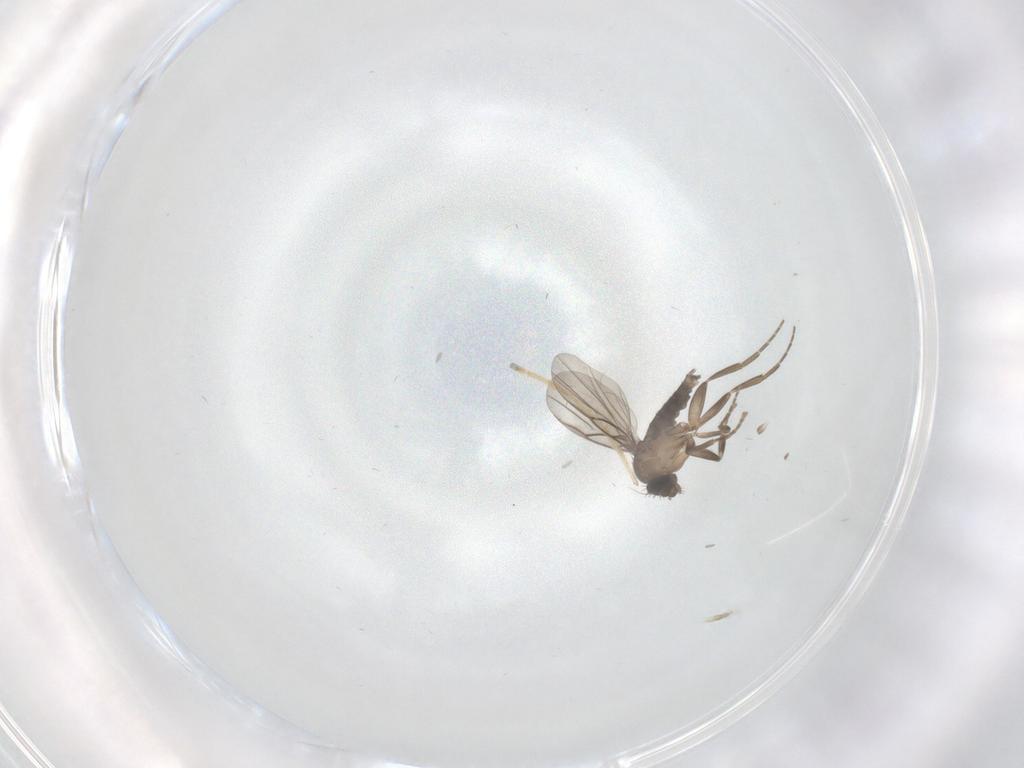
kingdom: Animalia
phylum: Arthropoda
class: Insecta
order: Diptera
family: Chironomidae
